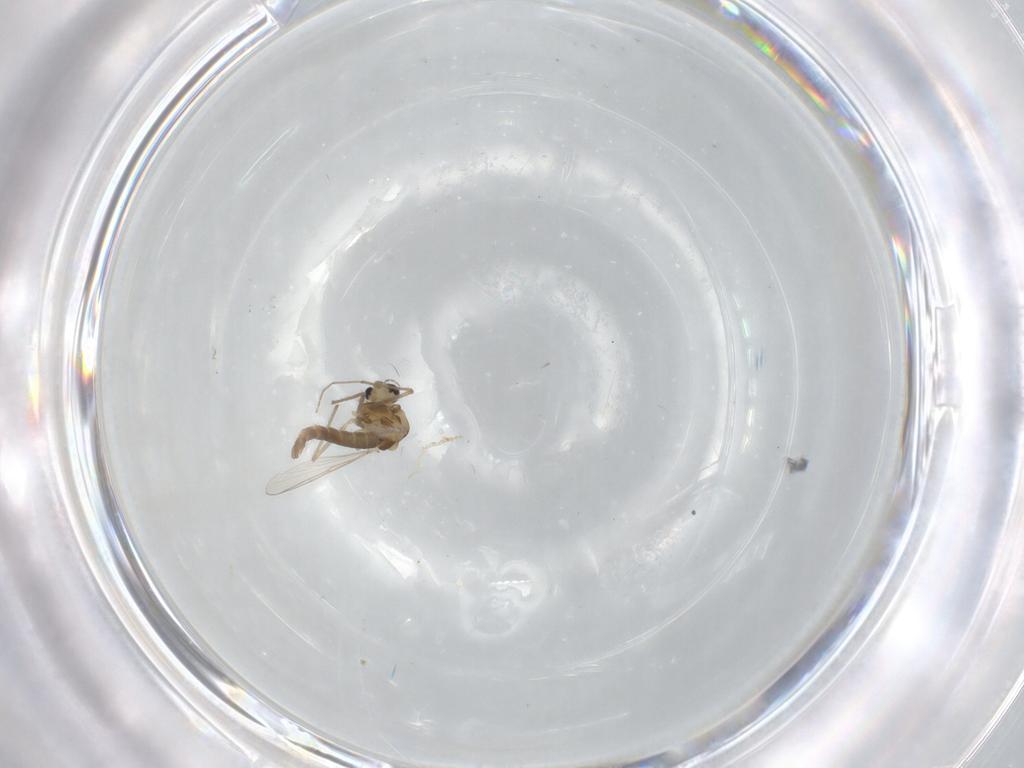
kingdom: Animalia
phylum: Arthropoda
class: Insecta
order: Diptera
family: Chironomidae
